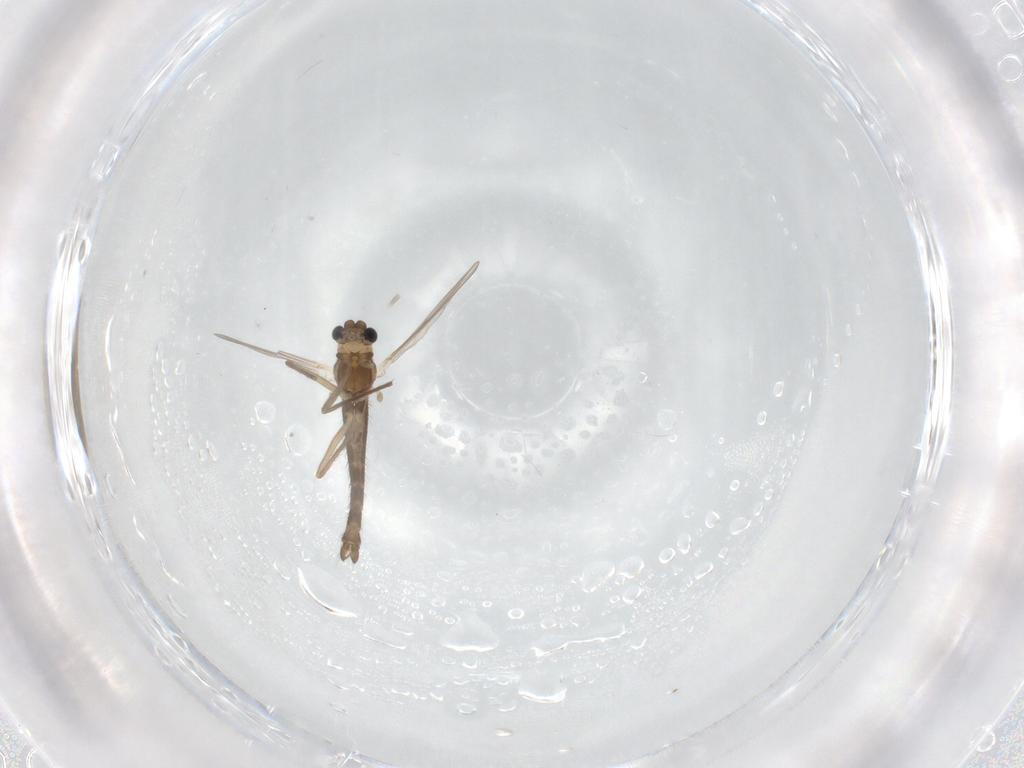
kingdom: Animalia
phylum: Arthropoda
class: Insecta
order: Diptera
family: Chironomidae
